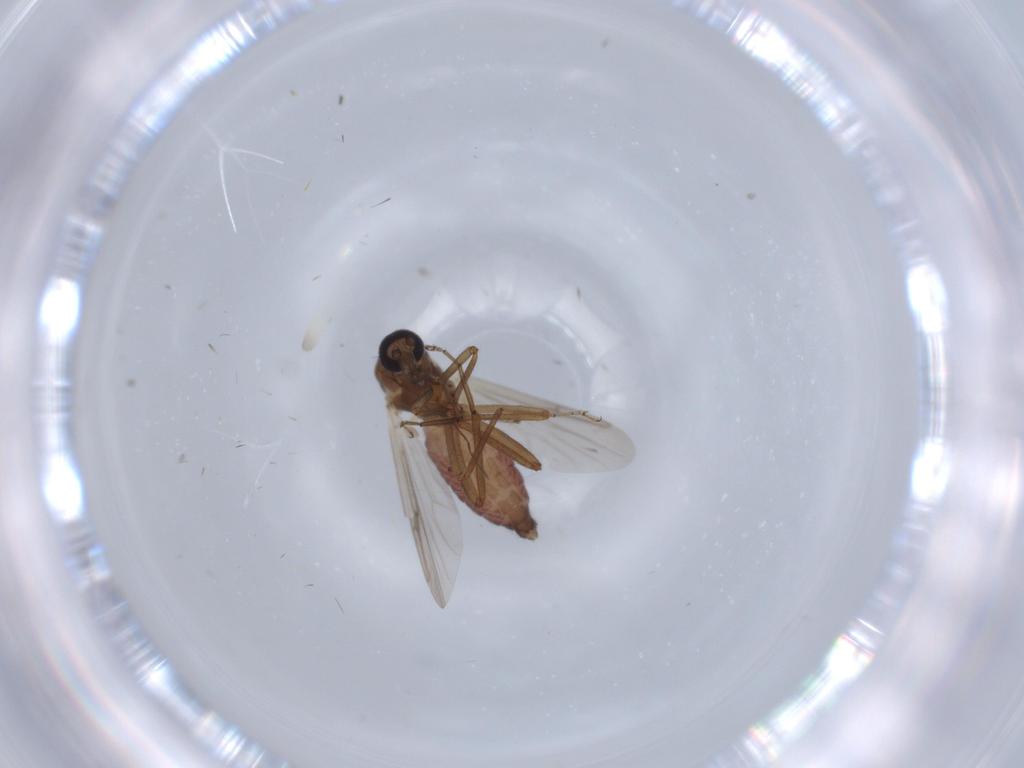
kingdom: Animalia
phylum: Arthropoda
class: Insecta
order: Diptera
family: Ceratopogonidae
